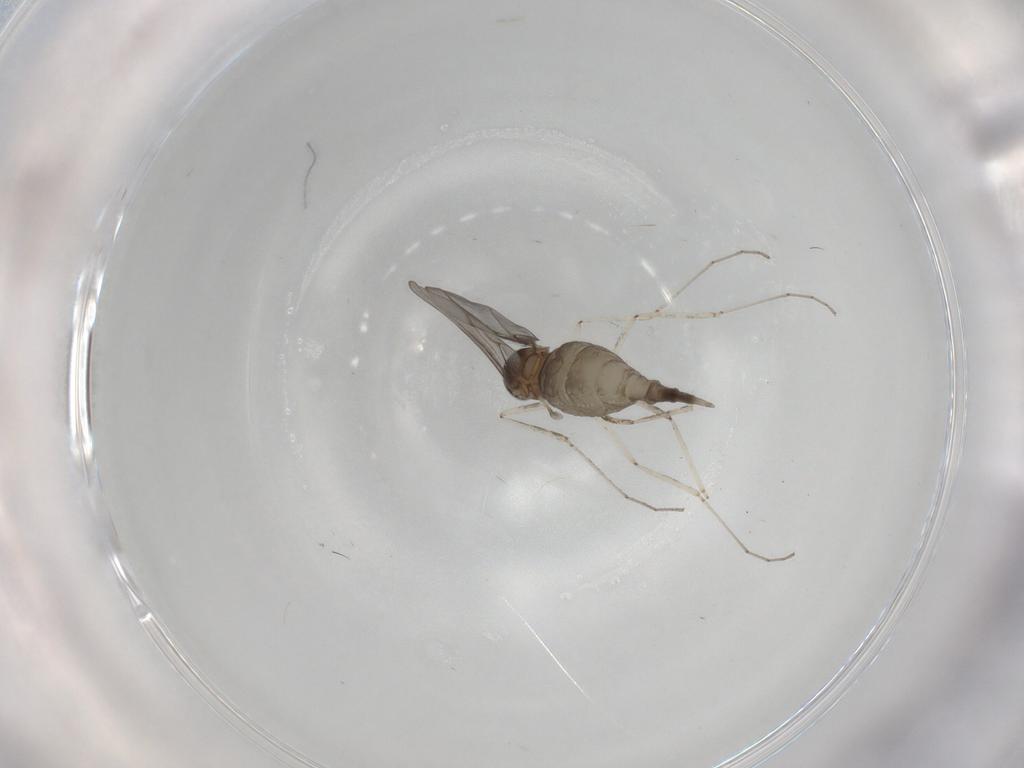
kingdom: Animalia
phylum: Arthropoda
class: Insecta
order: Diptera
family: Cecidomyiidae
